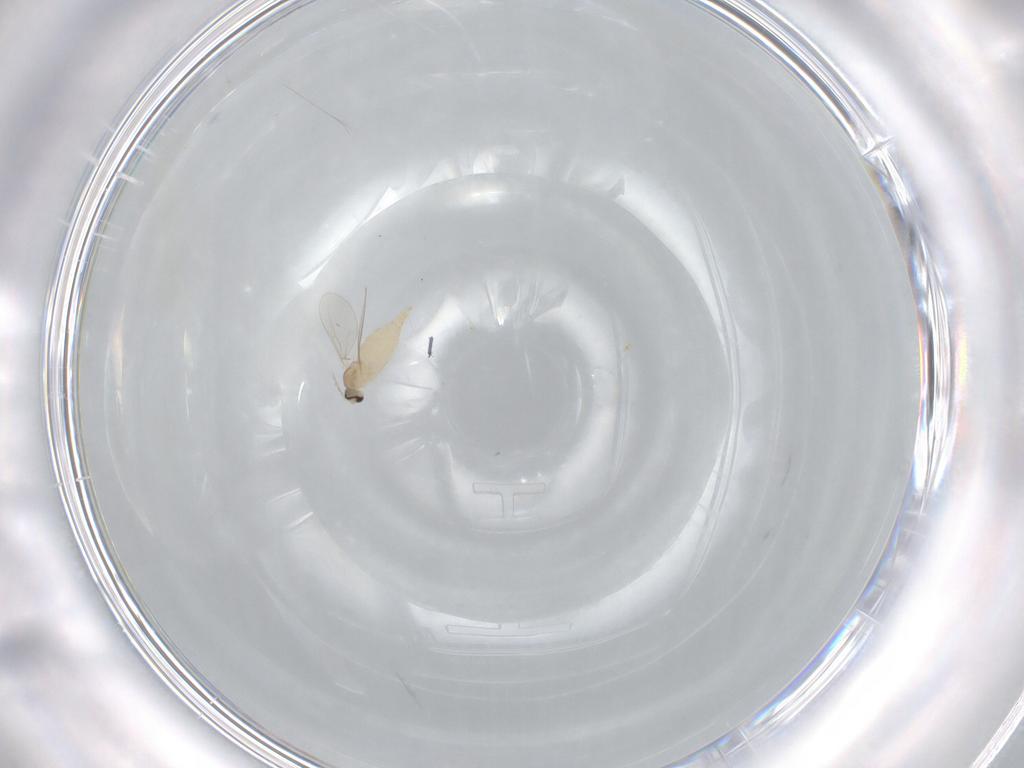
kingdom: Animalia
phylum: Arthropoda
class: Insecta
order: Diptera
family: Cecidomyiidae
